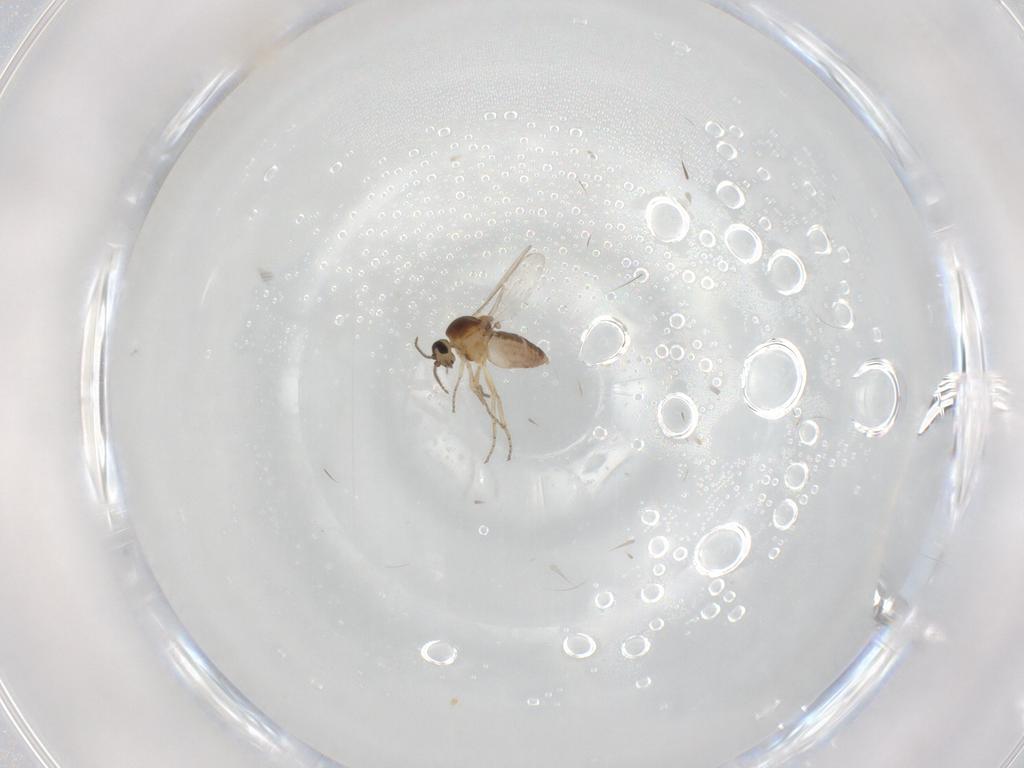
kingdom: Animalia
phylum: Arthropoda
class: Insecta
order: Diptera
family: Ceratopogonidae
